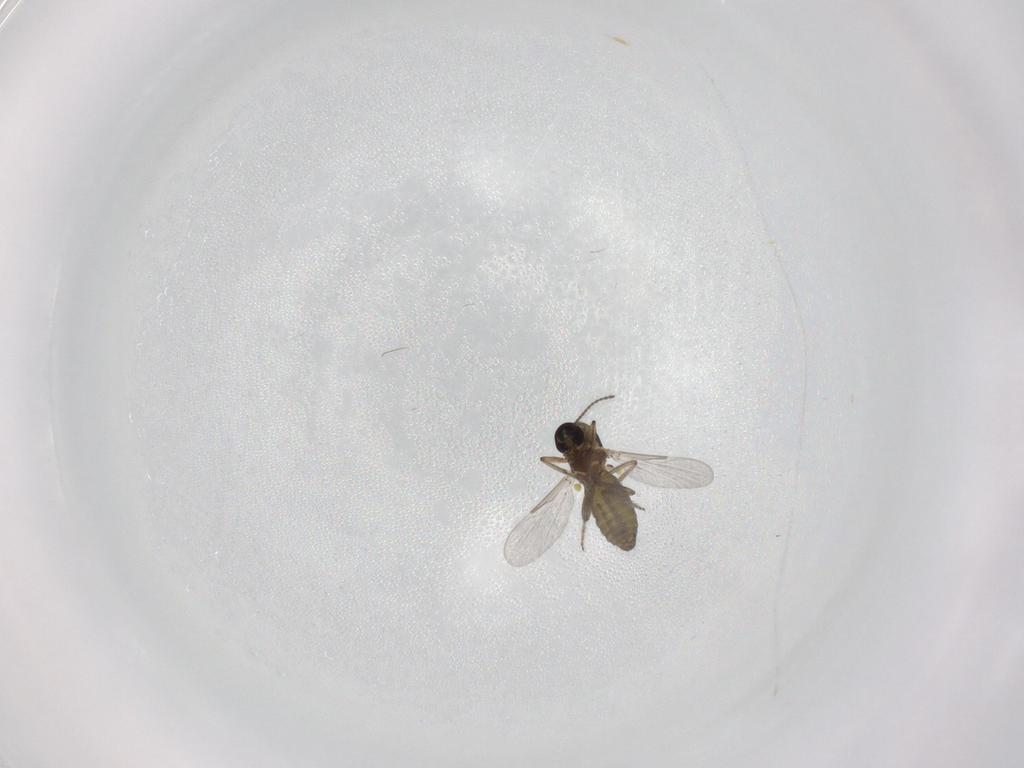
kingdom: Animalia
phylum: Arthropoda
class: Insecta
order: Diptera
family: Ceratopogonidae
